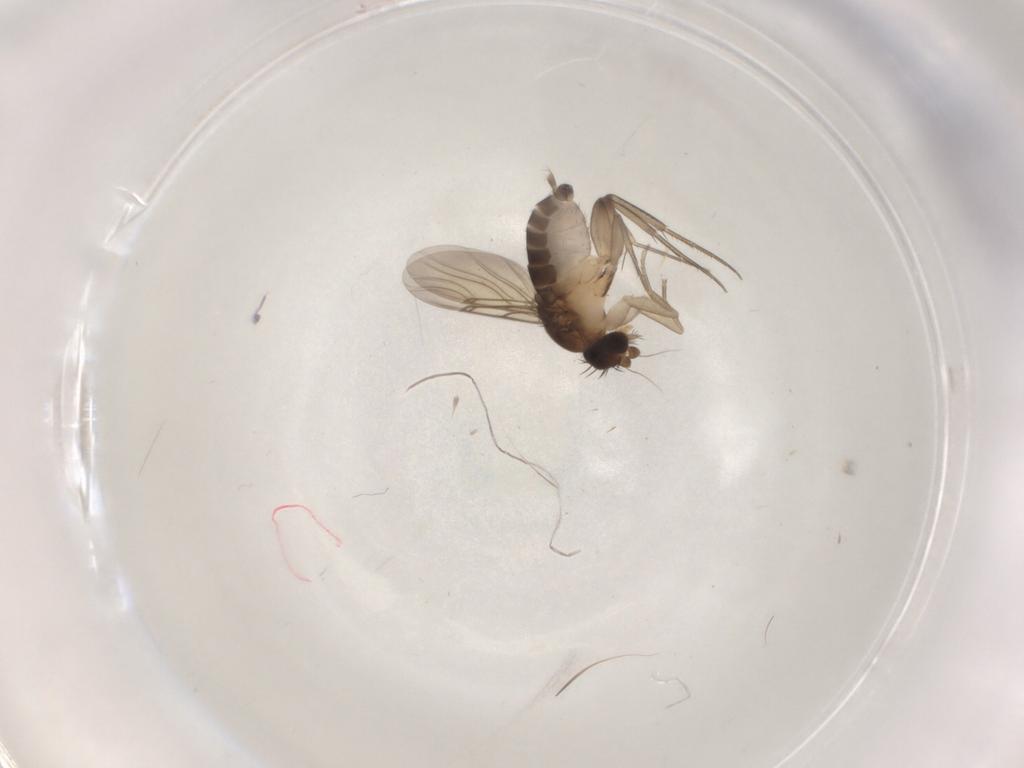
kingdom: Animalia
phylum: Arthropoda
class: Insecta
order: Diptera
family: Phoridae
